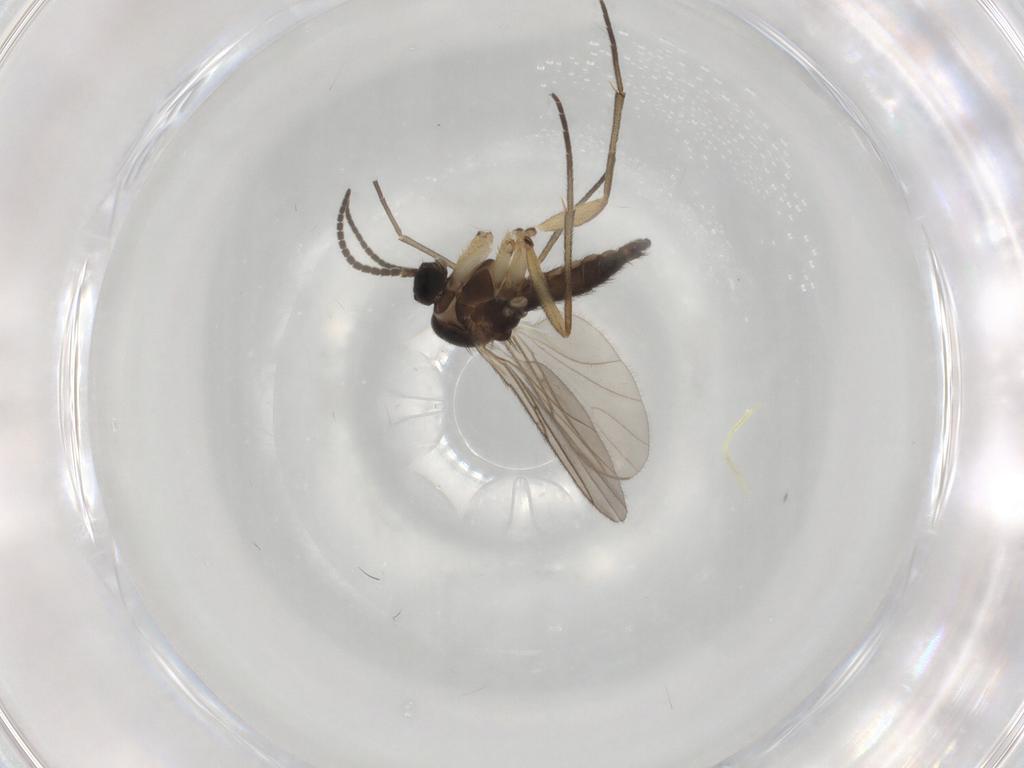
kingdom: Animalia
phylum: Arthropoda
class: Insecta
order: Diptera
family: Sciaridae
